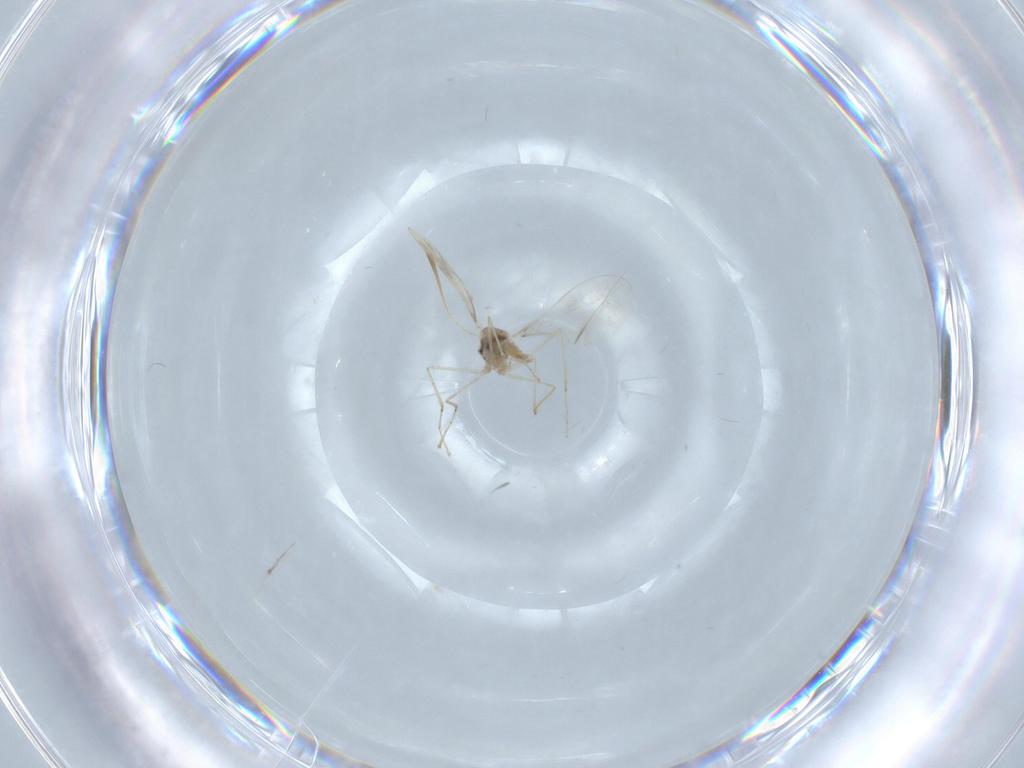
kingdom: Animalia
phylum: Arthropoda
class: Insecta
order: Diptera
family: Cecidomyiidae
